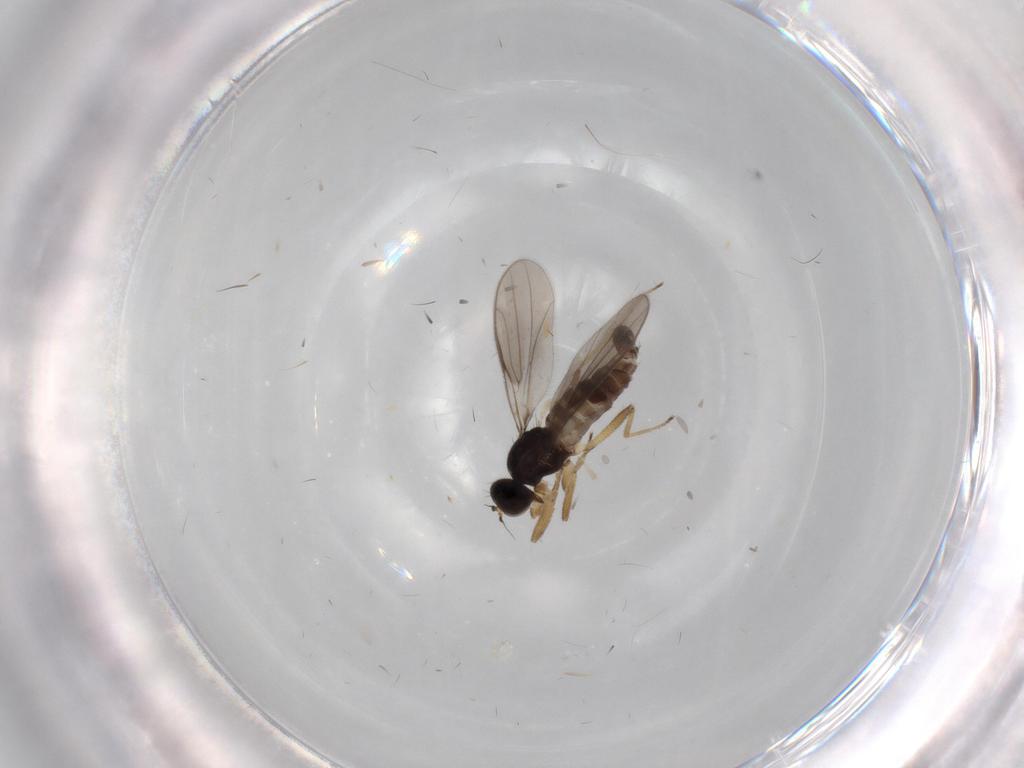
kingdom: Animalia
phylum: Arthropoda
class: Insecta
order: Diptera
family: Hybotidae
